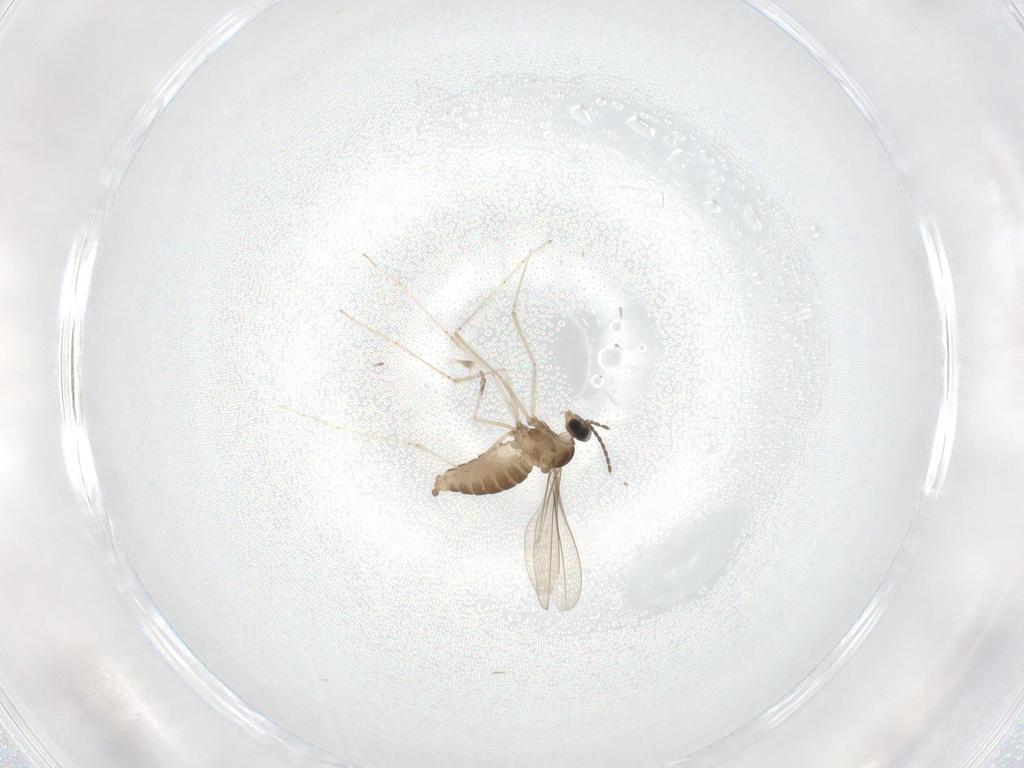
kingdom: Animalia
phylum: Arthropoda
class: Insecta
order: Diptera
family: Cecidomyiidae
